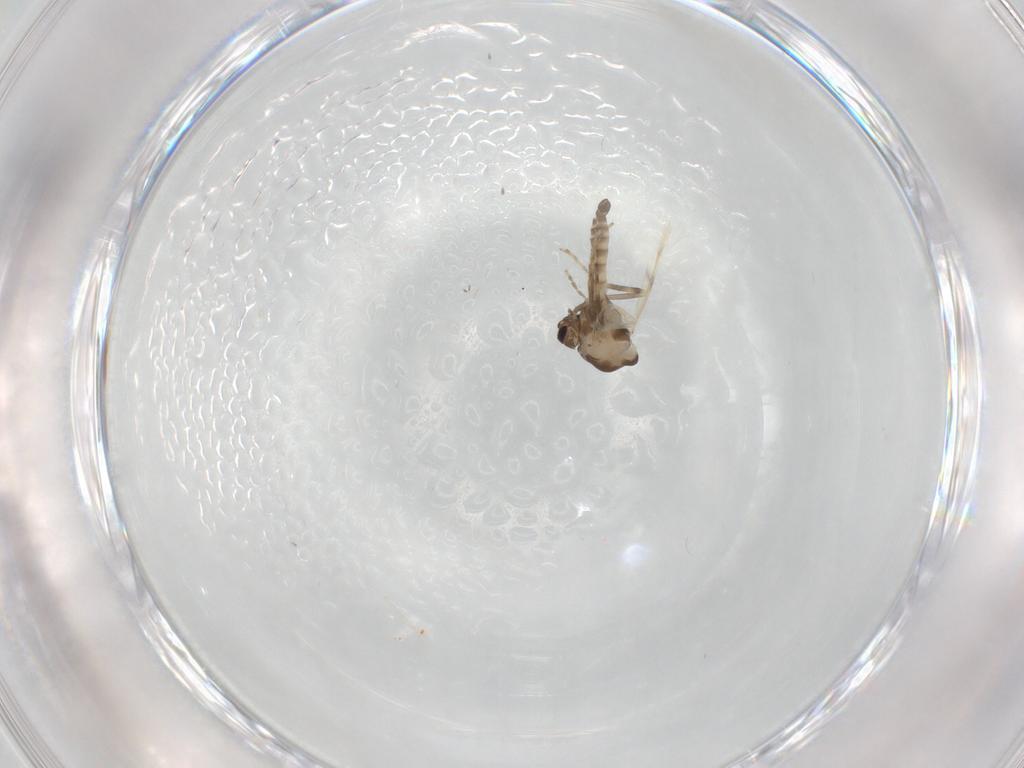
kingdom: Animalia
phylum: Arthropoda
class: Insecta
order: Diptera
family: Ceratopogonidae
